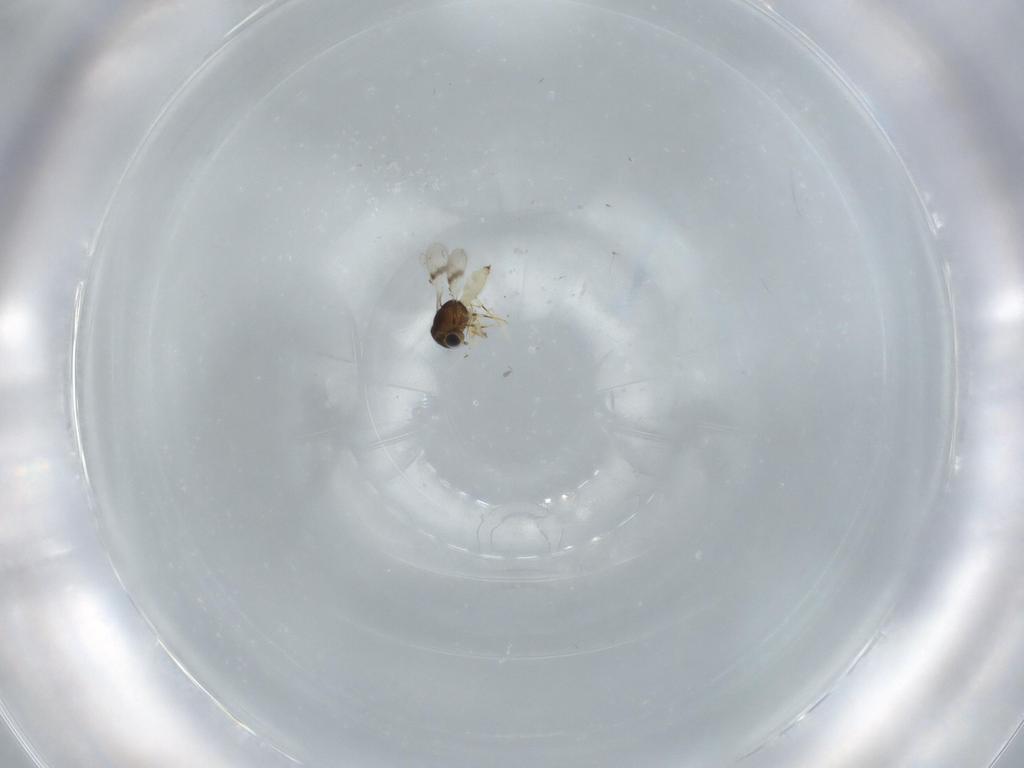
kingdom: Animalia
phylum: Arthropoda
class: Insecta
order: Hymenoptera
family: Scelionidae
